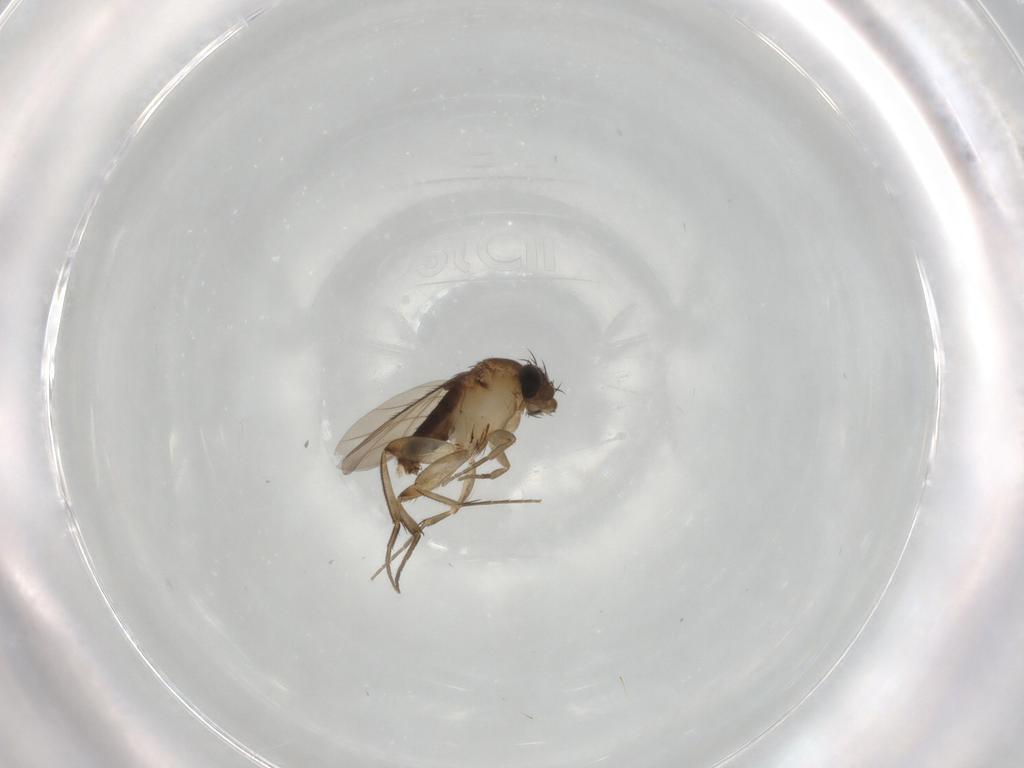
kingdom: Animalia
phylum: Arthropoda
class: Insecta
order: Diptera
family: Phoridae
